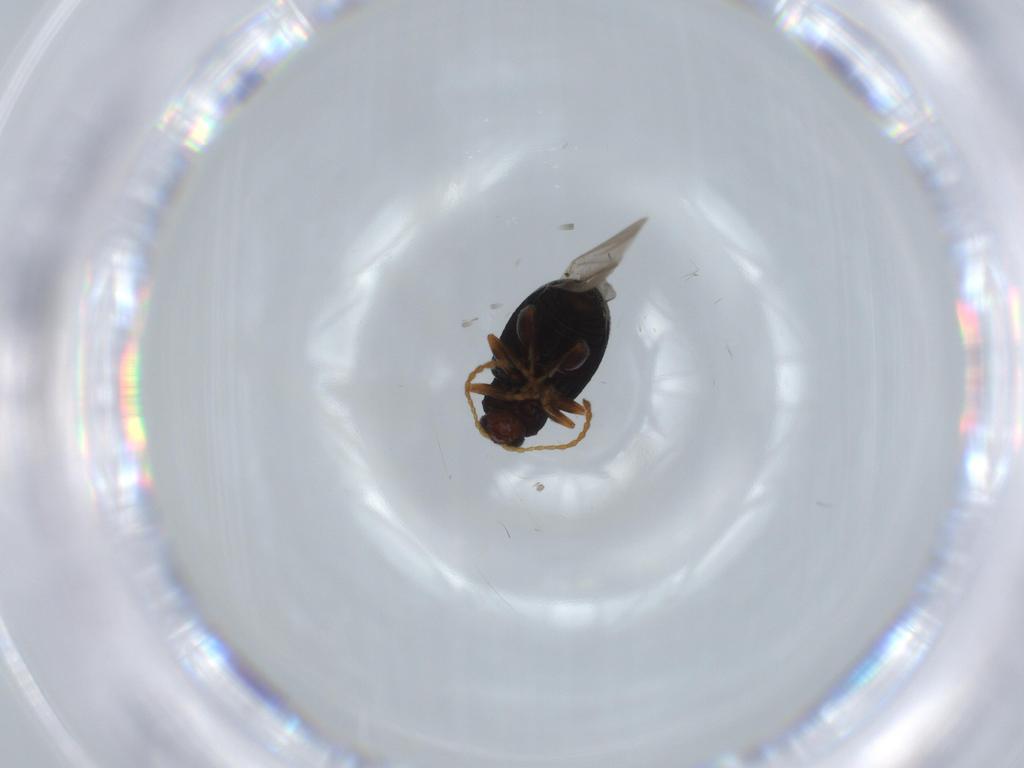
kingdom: Animalia
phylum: Arthropoda
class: Insecta
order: Coleoptera
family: Chrysomelidae
